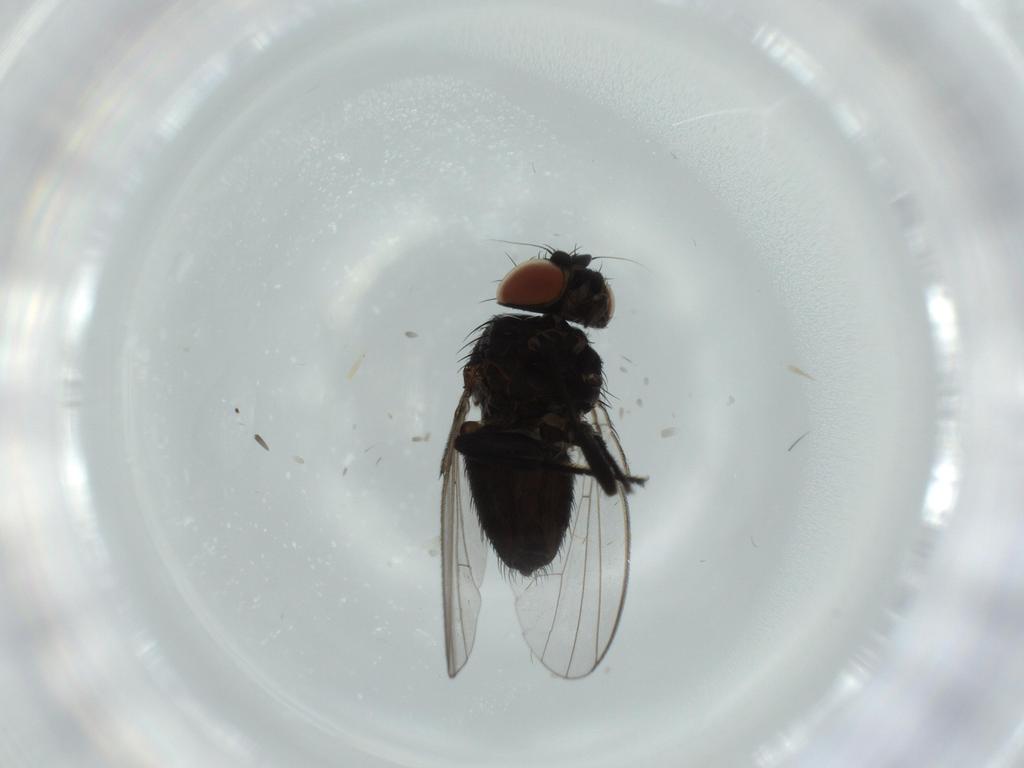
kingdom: Animalia
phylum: Arthropoda
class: Insecta
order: Diptera
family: Milichiidae
